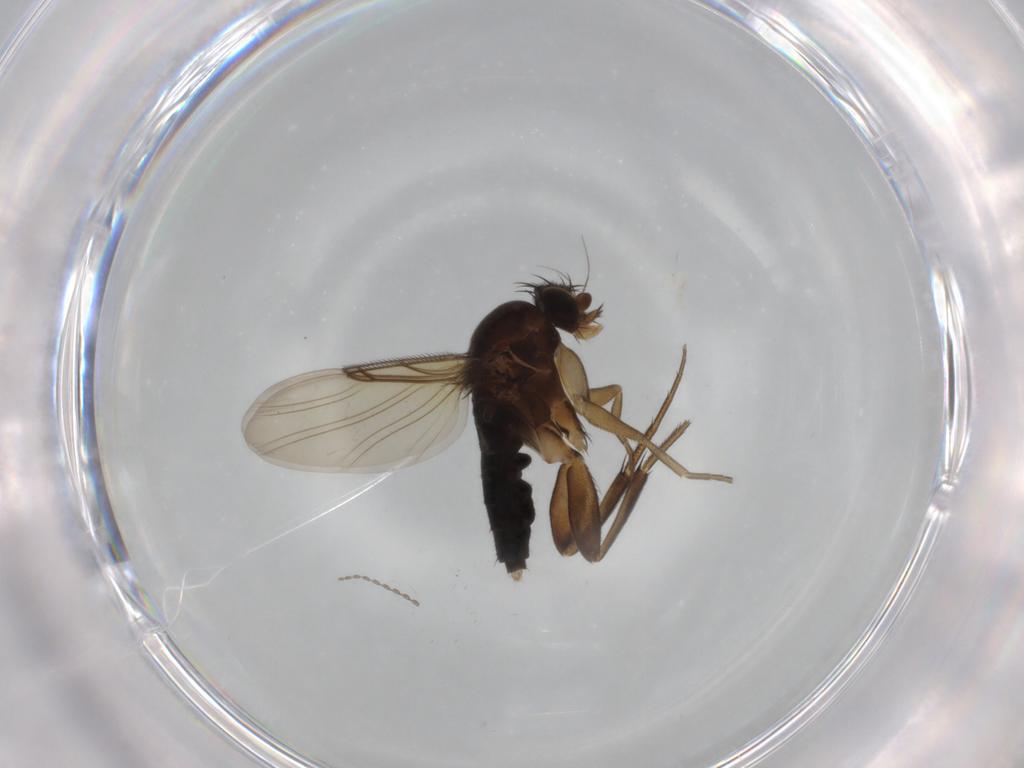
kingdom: Animalia
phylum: Arthropoda
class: Insecta
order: Diptera
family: Phoridae
